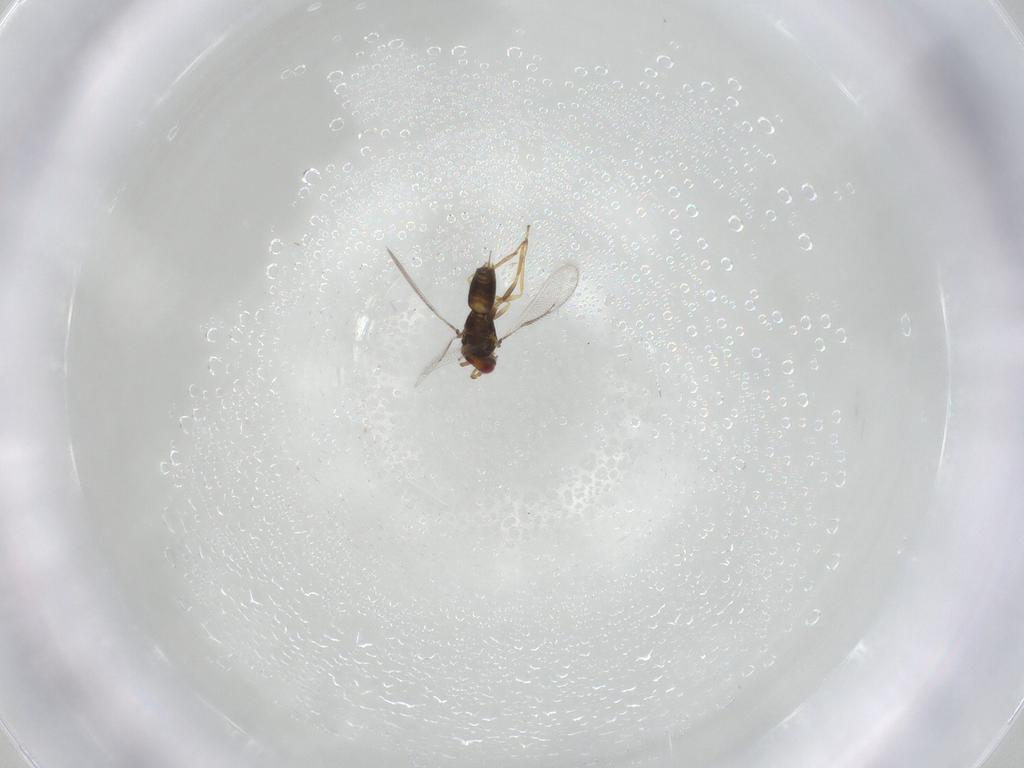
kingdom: Animalia
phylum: Arthropoda
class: Insecta
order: Hymenoptera
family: Eulophidae
